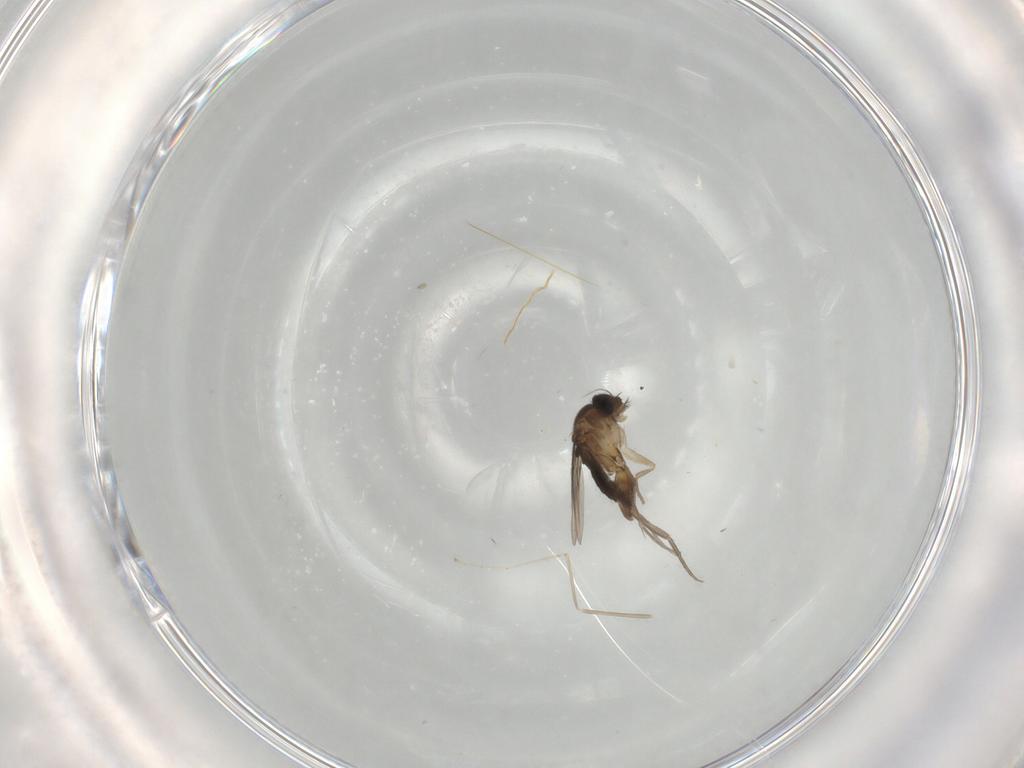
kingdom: Animalia
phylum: Arthropoda
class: Insecta
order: Diptera
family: Phoridae
